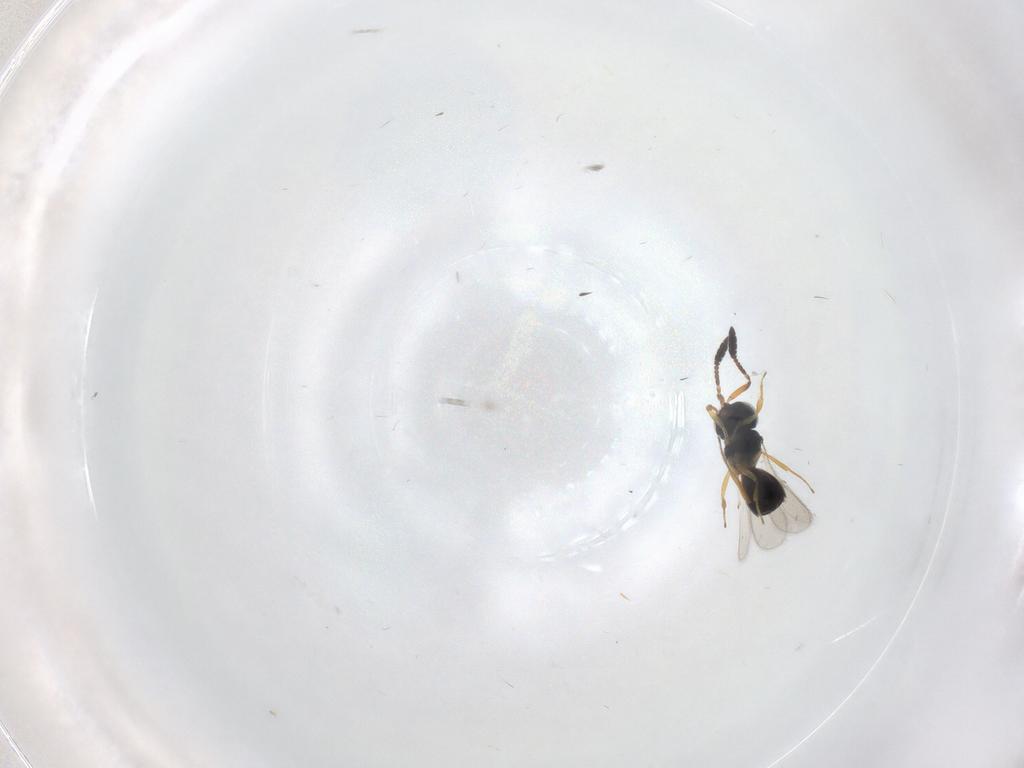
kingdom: Animalia
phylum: Arthropoda
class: Insecta
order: Hymenoptera
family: Scelionidae
